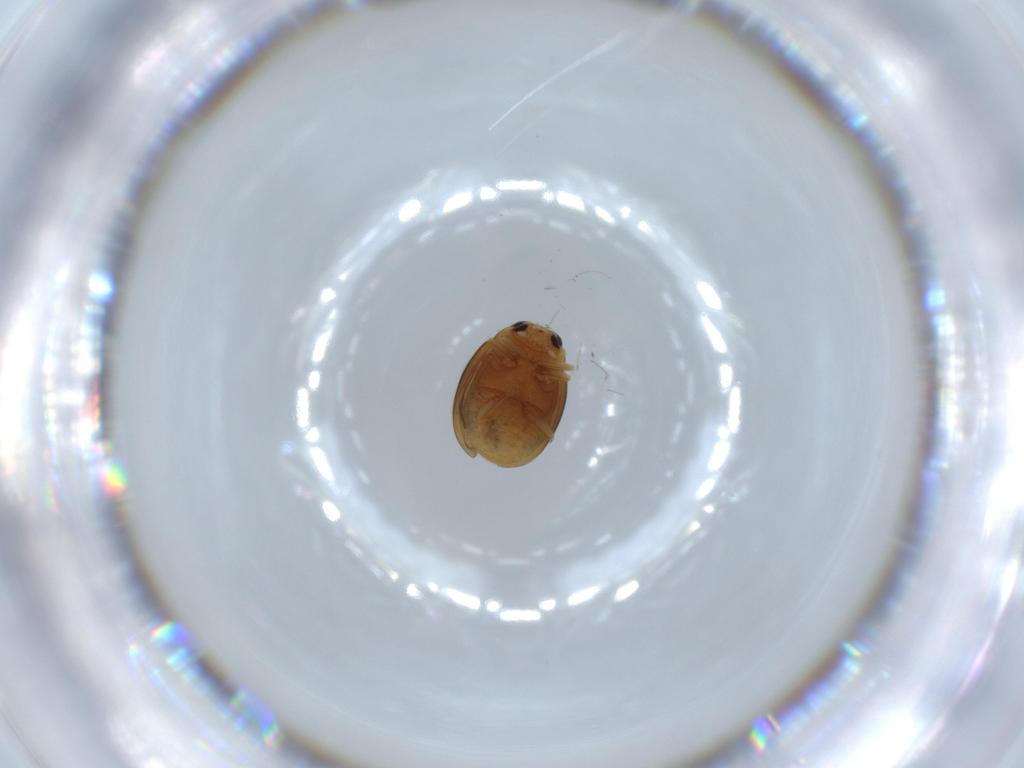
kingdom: Animalia
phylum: Arthropoda
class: Insecta
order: Coleoptera
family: Coccinellidae
